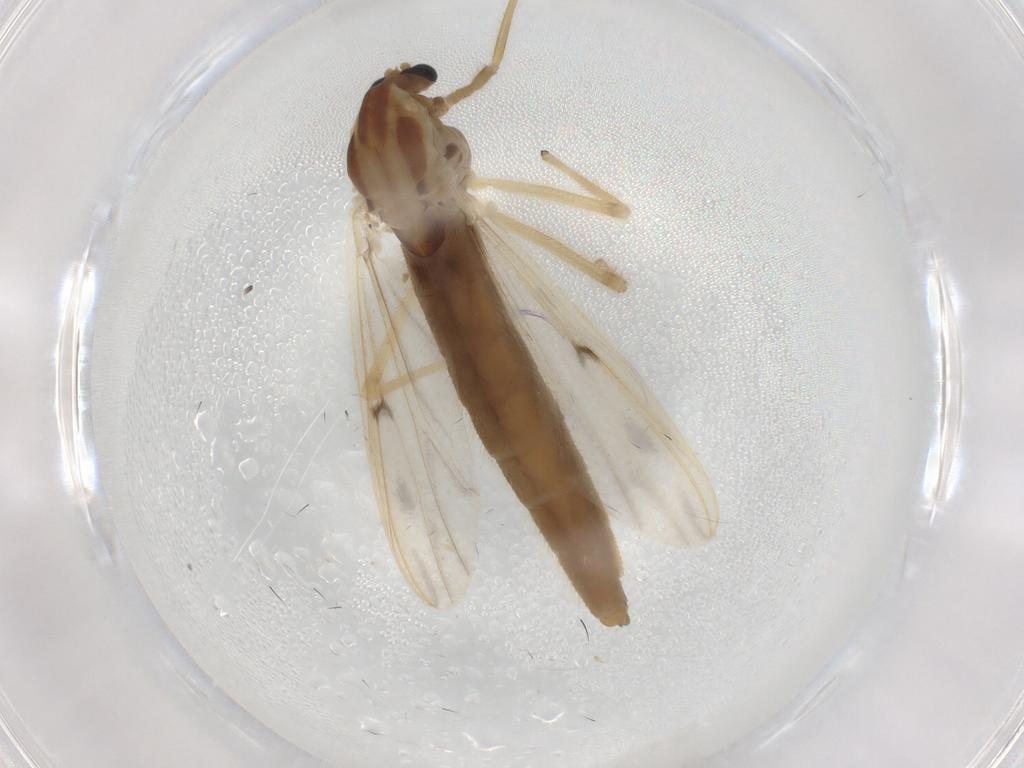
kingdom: Animalia
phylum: Arthropoda
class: Insecta
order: Diptera
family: Chironomidae
